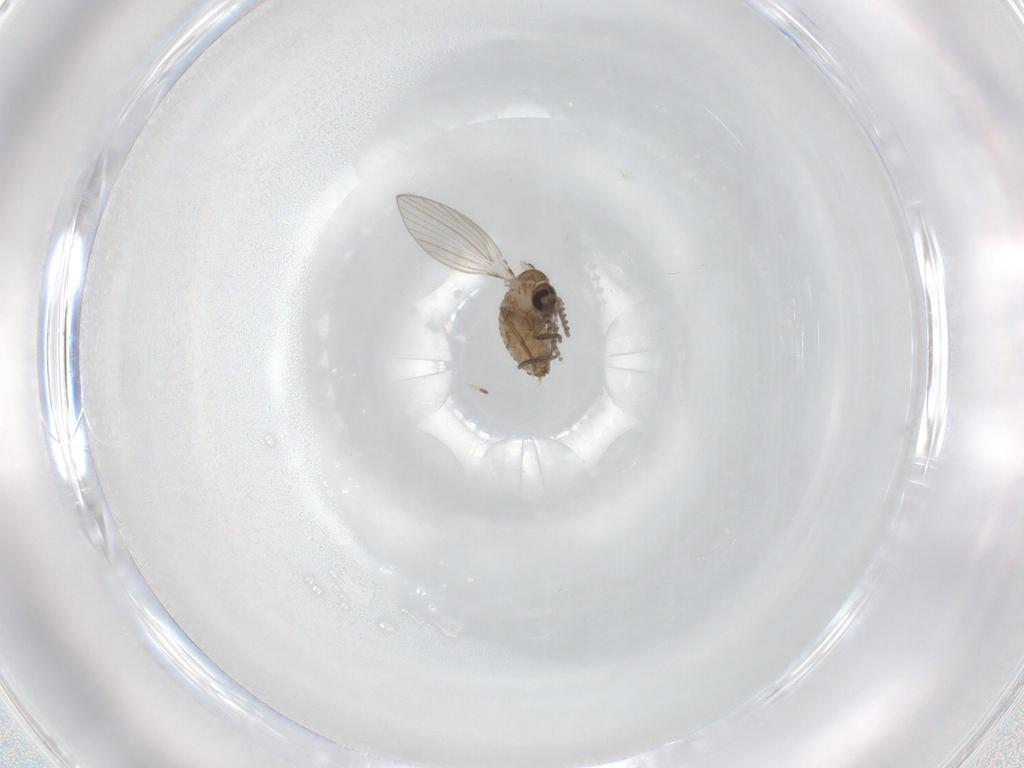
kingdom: Animalia
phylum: Arthropoda
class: Insecta
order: Diptera
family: Psychodidae
